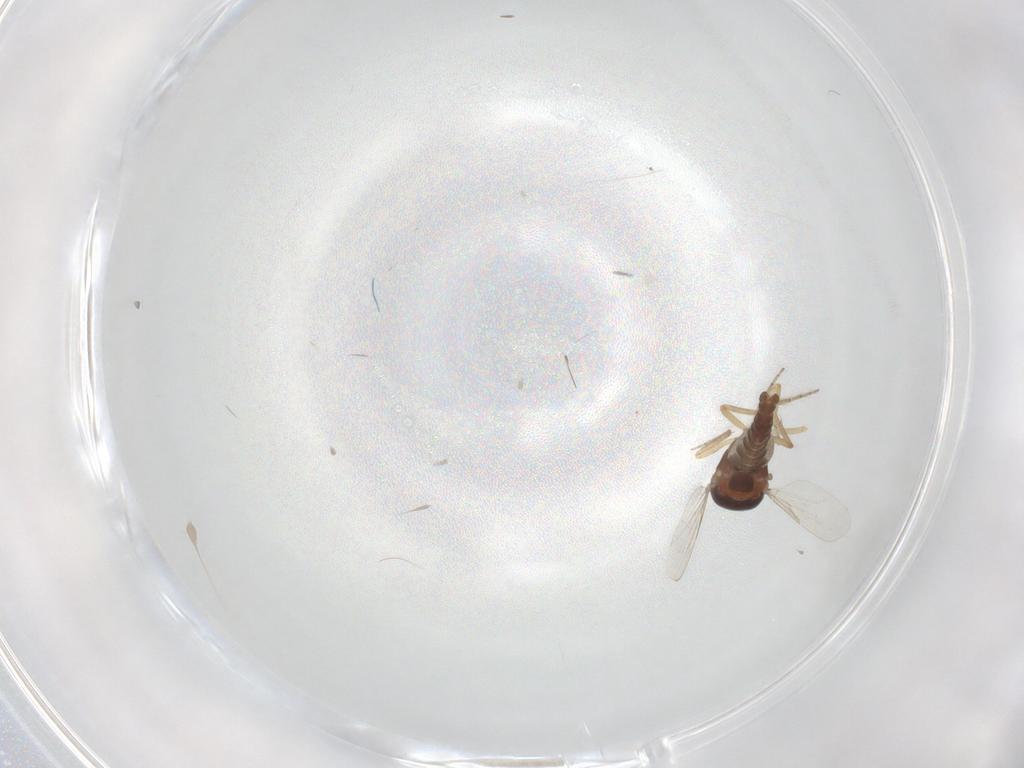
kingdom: Animalia
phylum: Arthropoda
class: Insecta
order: Diptera
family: Ceratopogonidae
